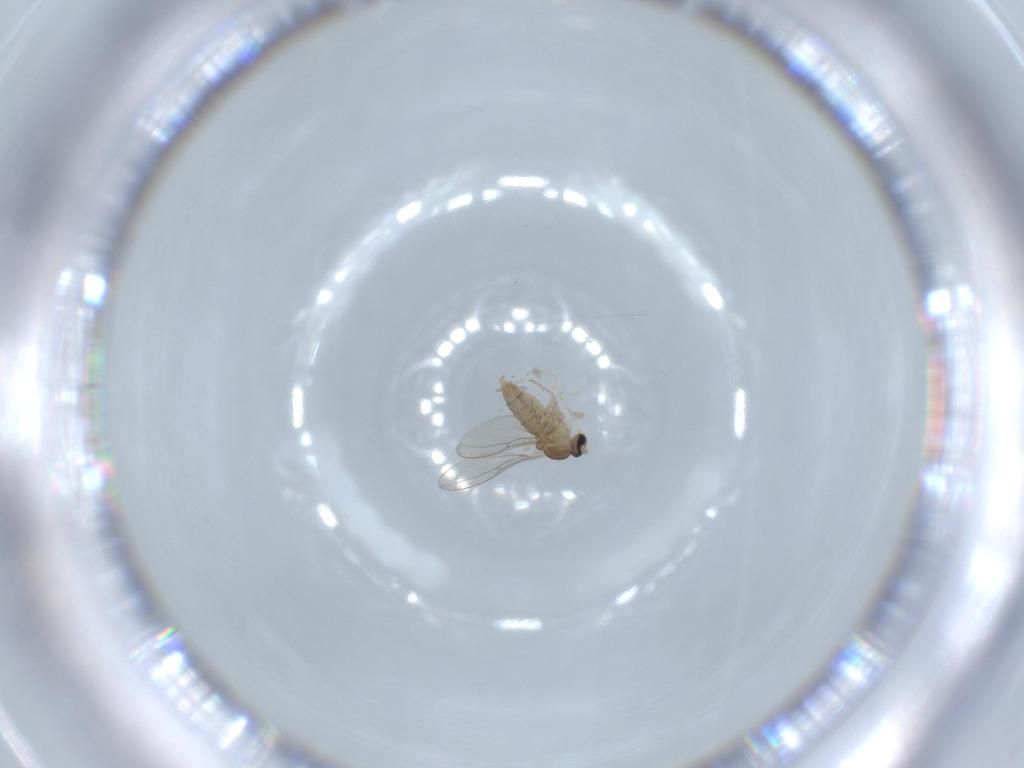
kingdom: Animalia
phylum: Arthropoda
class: Insecta
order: Diptera
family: Cecidomyiidae
